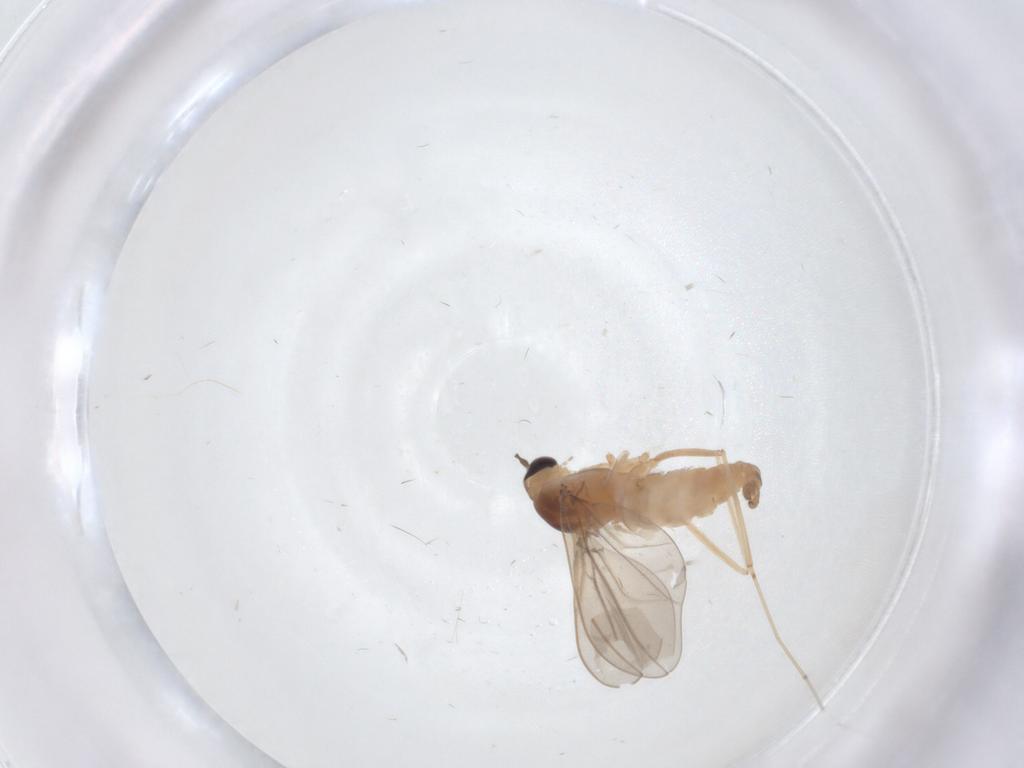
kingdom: Animalia
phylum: Arthropoda
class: Insecta
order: Diptera
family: Cecidomyiidae
